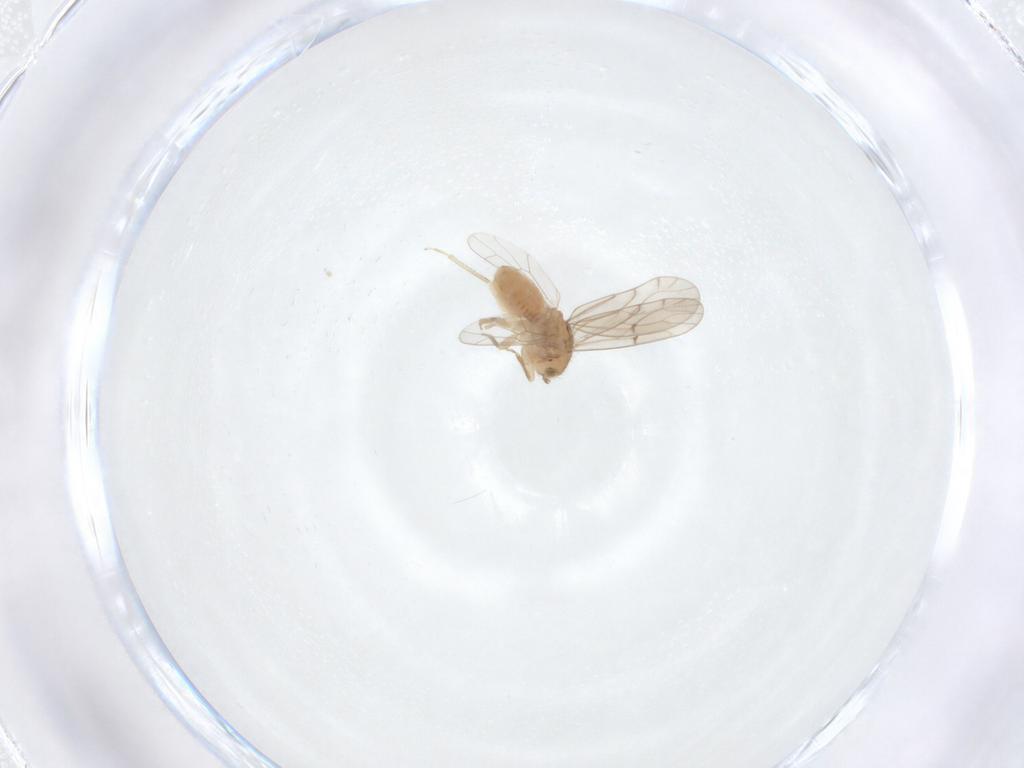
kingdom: Animalia
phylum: Arthropoda
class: Insecta
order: Psocodea
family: Ectopsocidae
